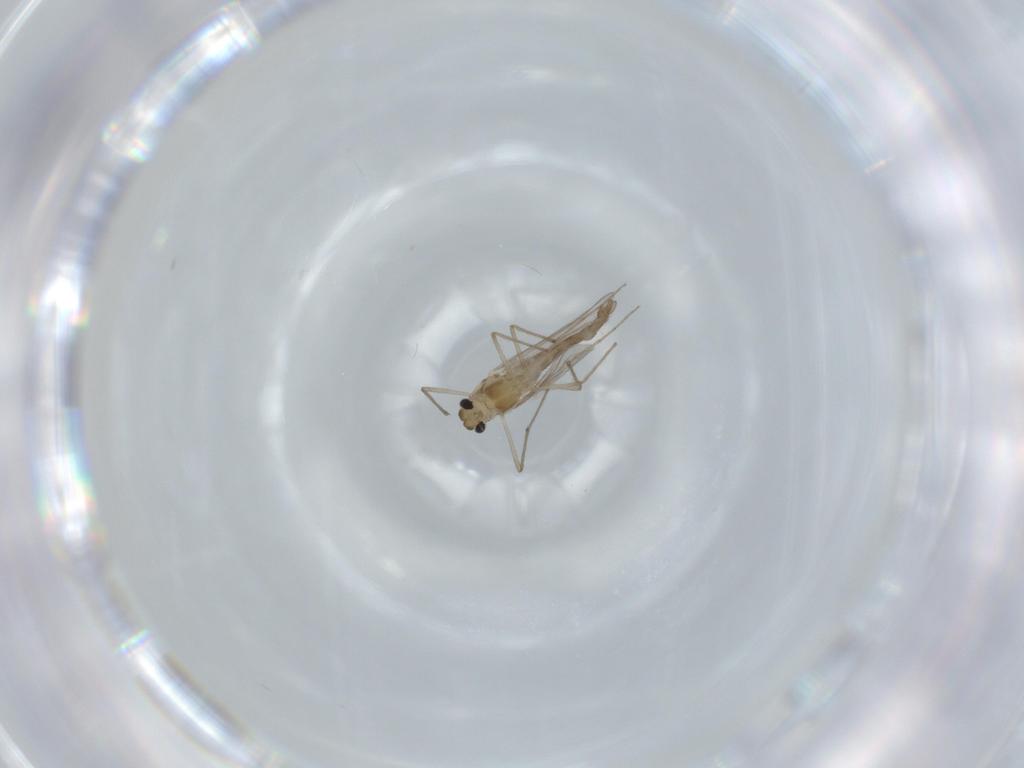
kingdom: Animalia
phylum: Arthropoda
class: Insecta
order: Diptera
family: Chironomidae
